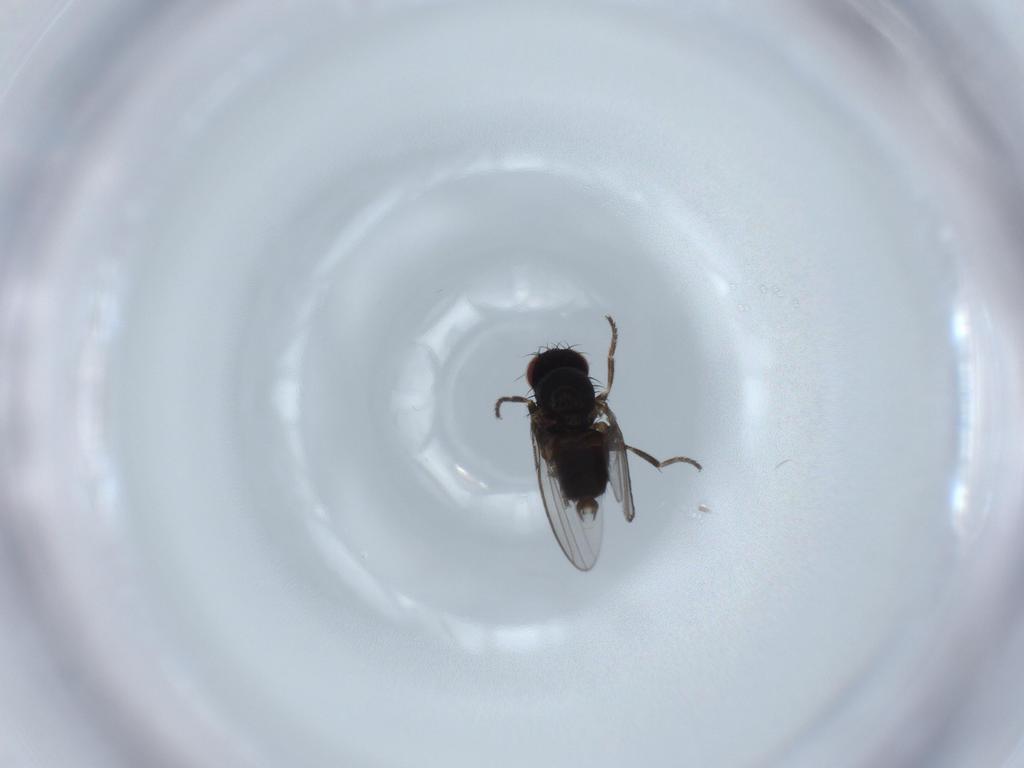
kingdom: Animalia
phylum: Arthropoda
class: Insecta
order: Diptera
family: Milichiidae
